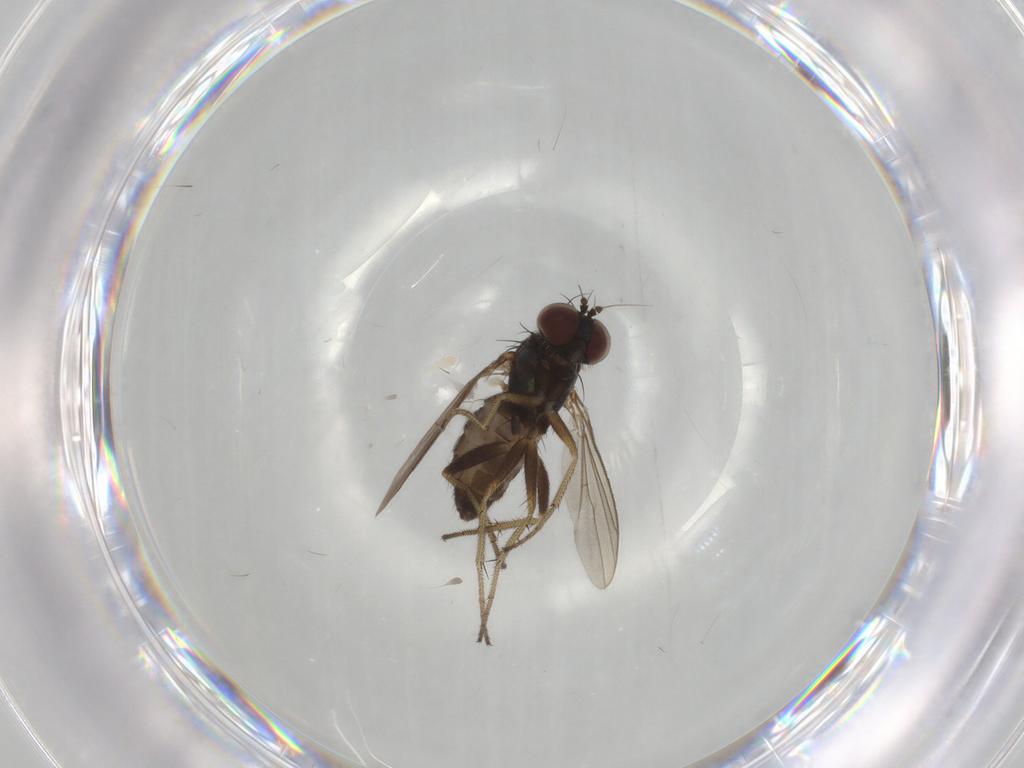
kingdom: Animalia
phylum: Arthropoda
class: Insecta
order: Diptera
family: Dolichopodidae
